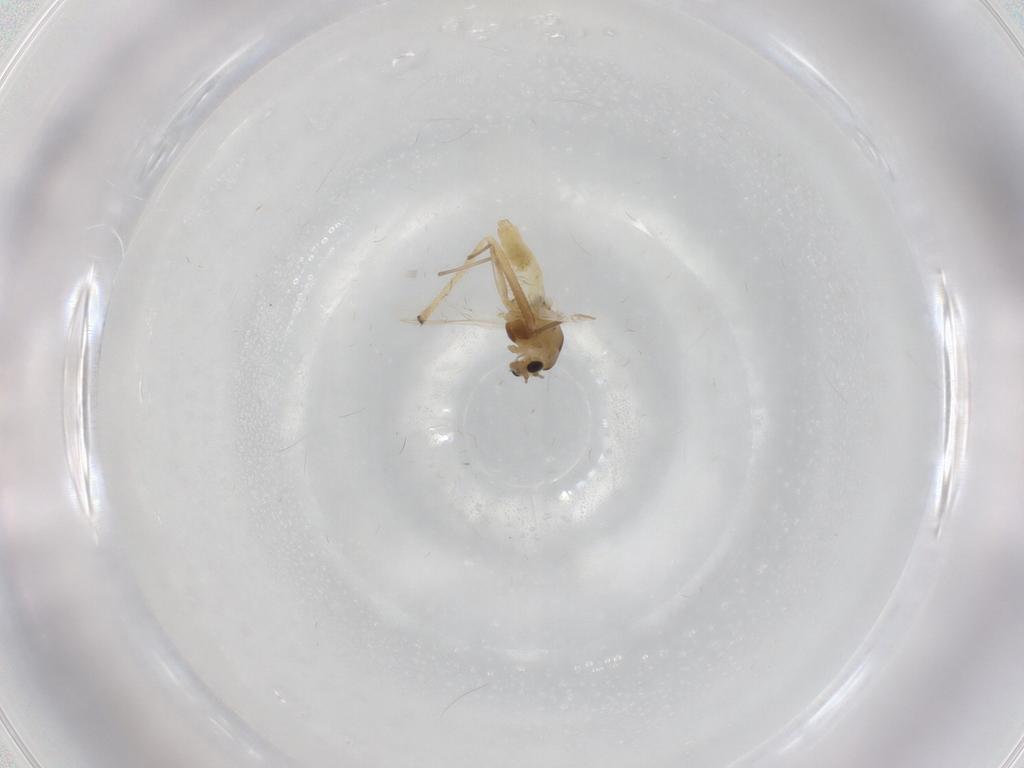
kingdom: Animalia
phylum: Arthropoda
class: Insecta
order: Diptera
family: Chironomidae
